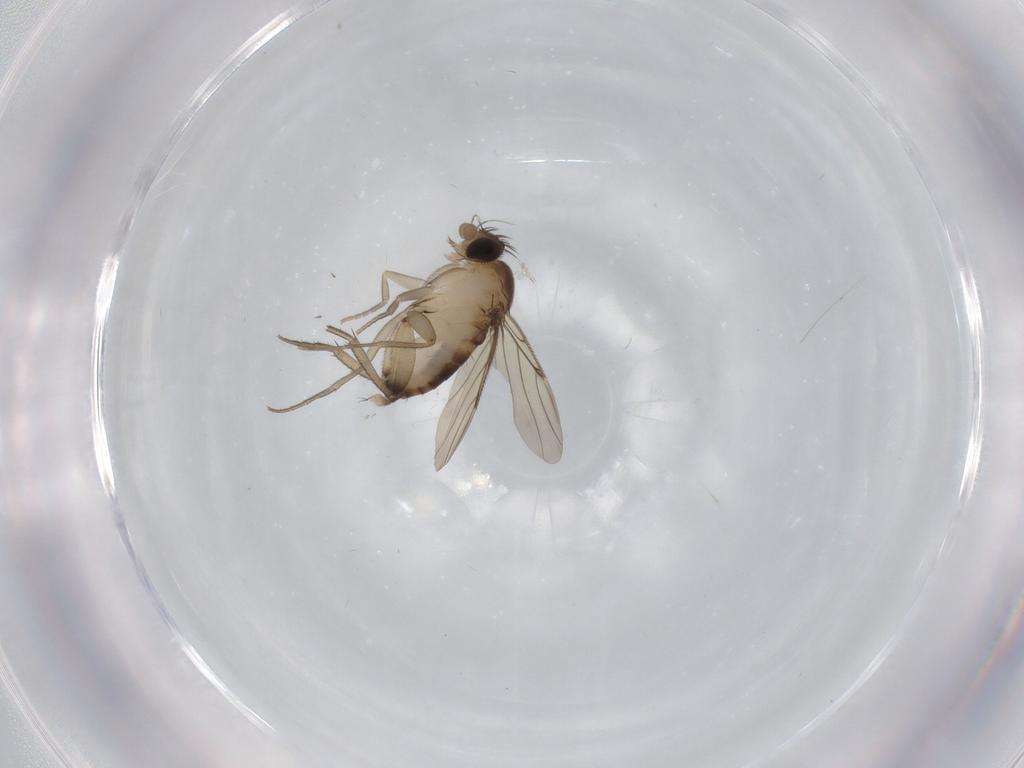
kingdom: Animalia
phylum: Arthropoda
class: Insecta
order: Diptera
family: Phoridae
